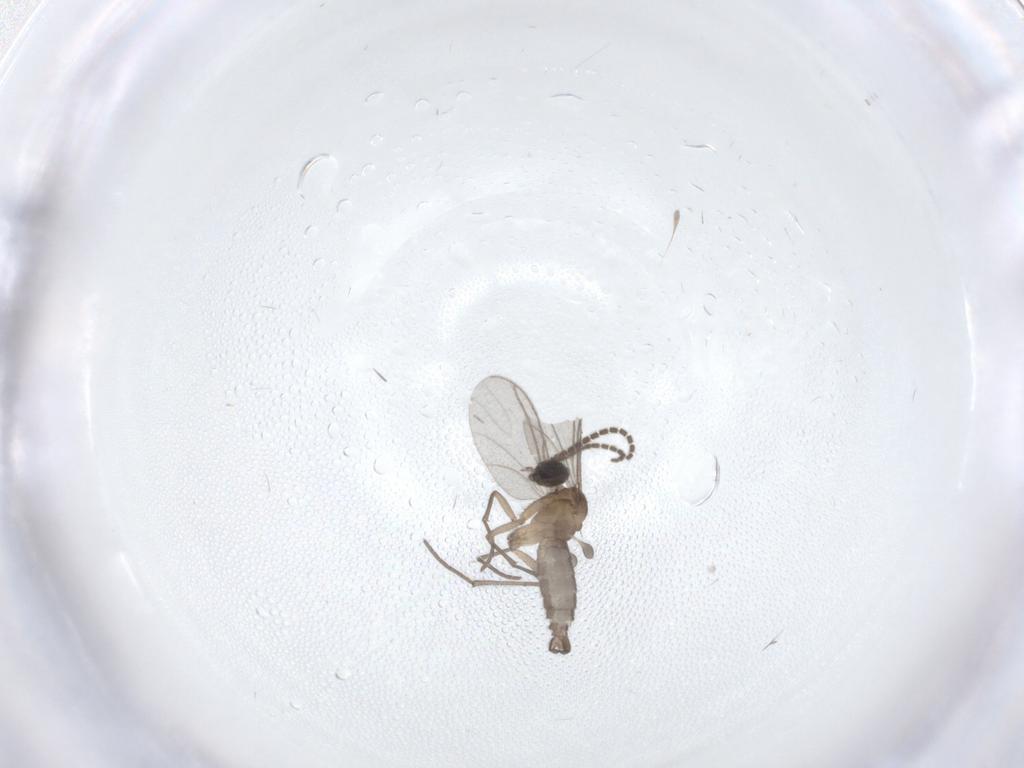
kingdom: Animalia
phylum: Arthropoda
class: Insecta
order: Diptera
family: Sciaridae
